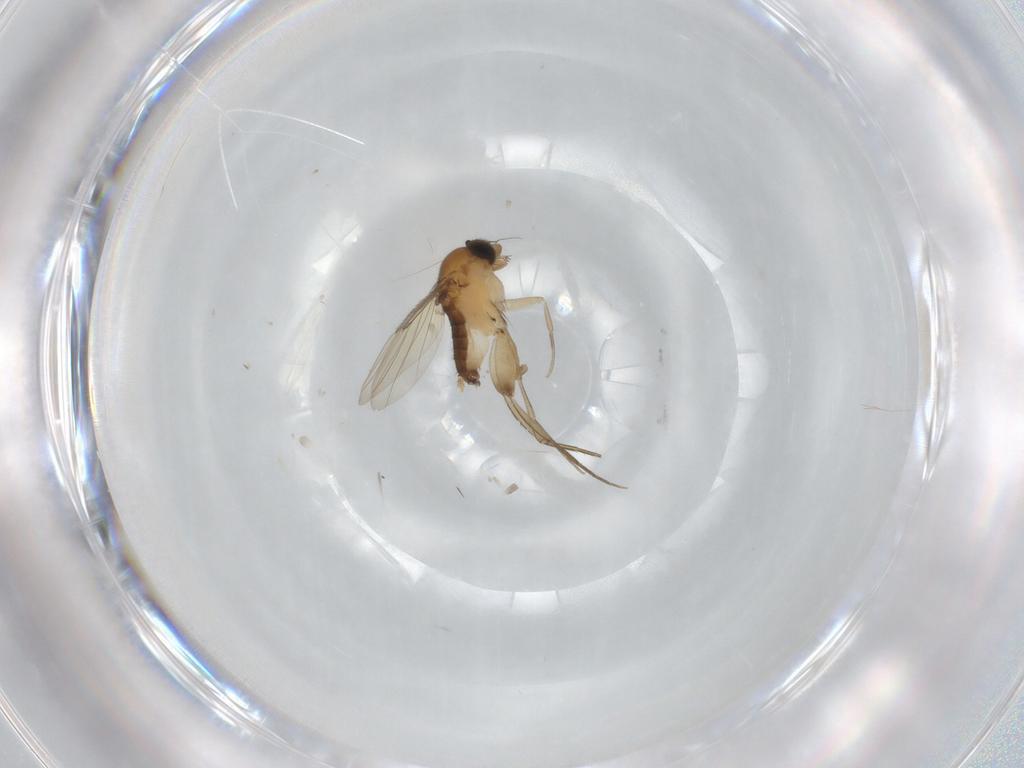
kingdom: Animalia
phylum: Arthropoda
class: Insecta
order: Diptera
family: Phoridae
